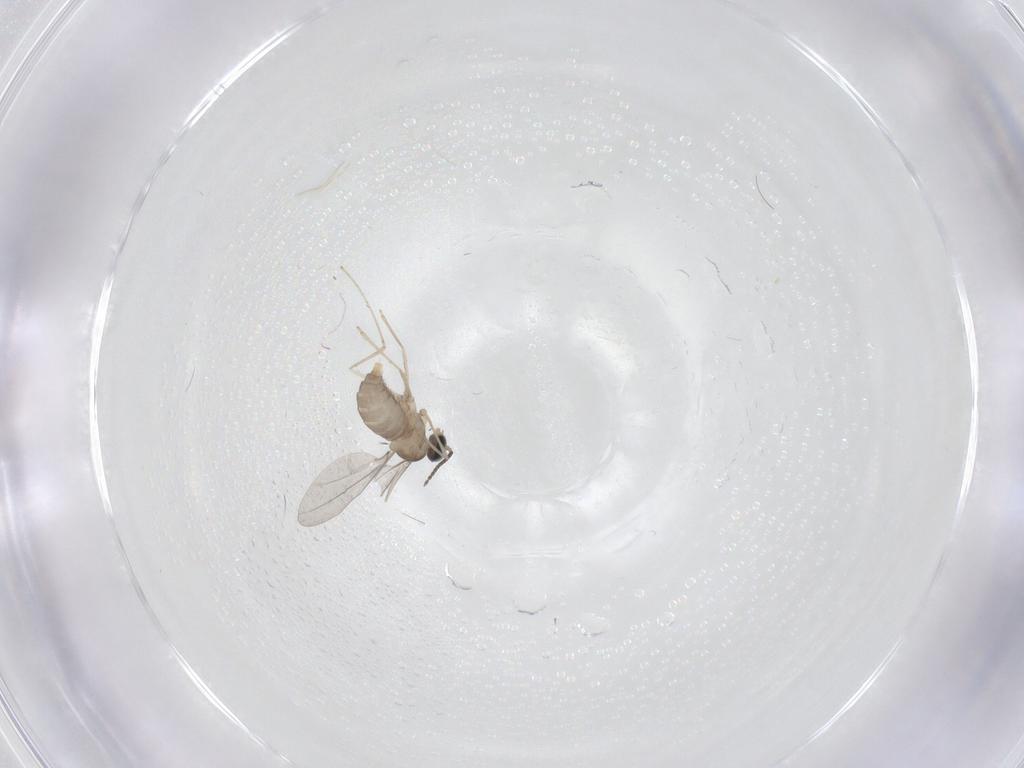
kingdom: Animalia
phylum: Arthropoda
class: Insecta
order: Diptera
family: Cecidomyiidae
